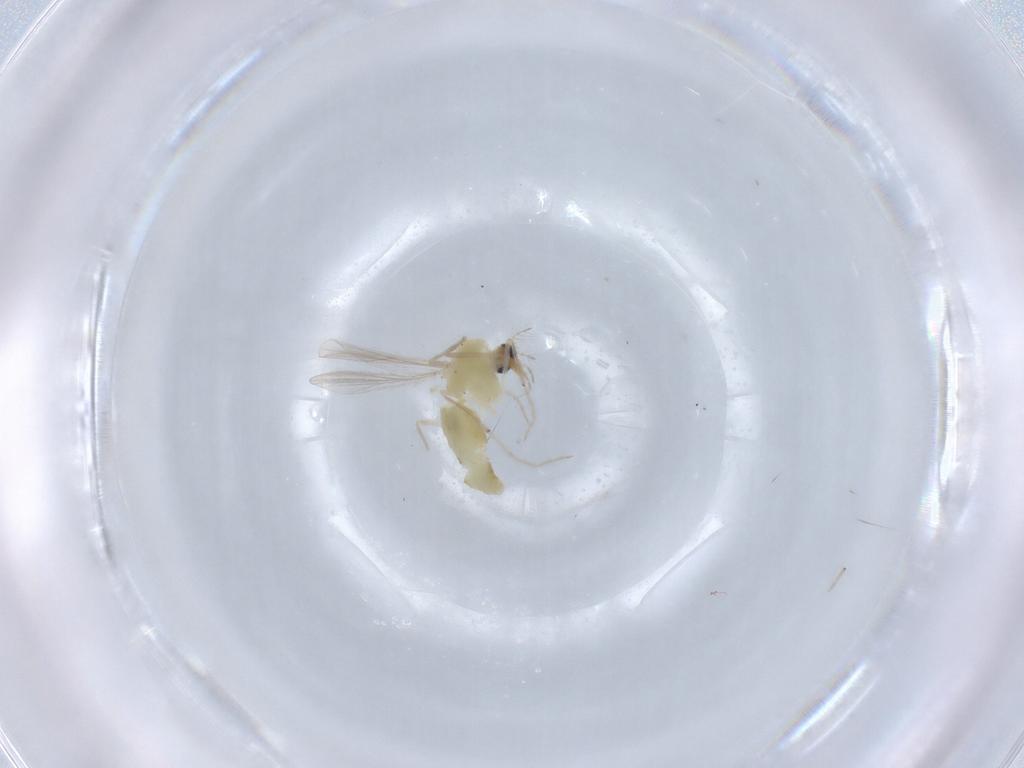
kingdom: Animalia
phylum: Arthropoda
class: Insecta
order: Diptera
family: Chironomidae
